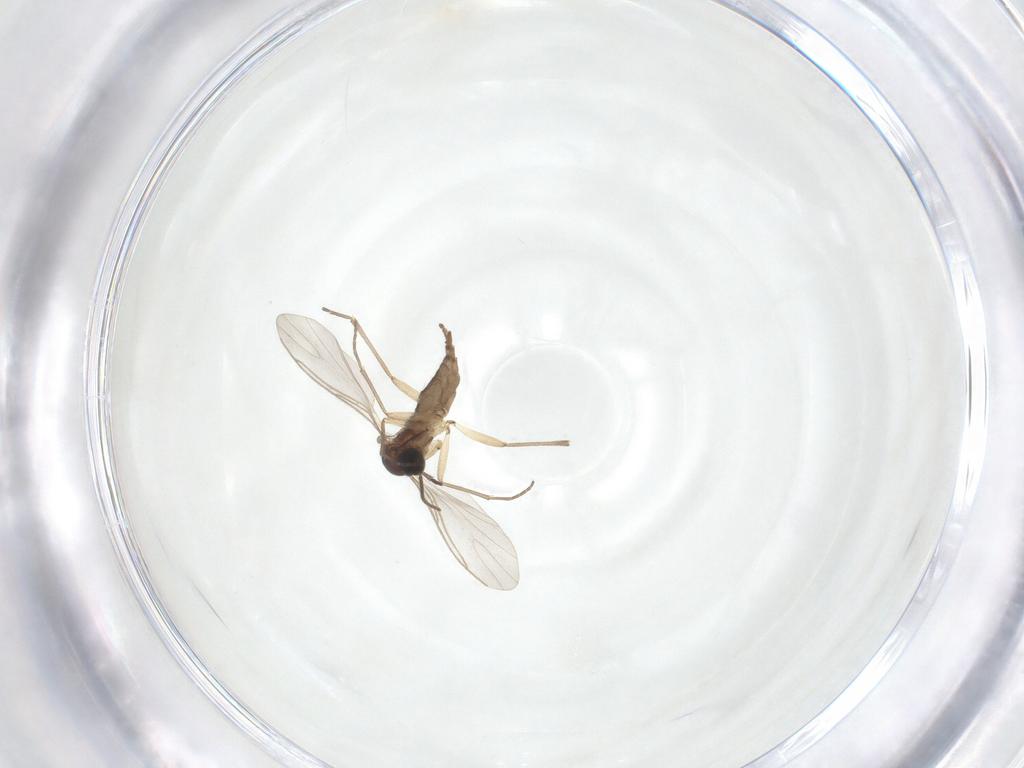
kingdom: Animalia
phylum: Arthropoda
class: Insecta
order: Diptera
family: Sciaridae
